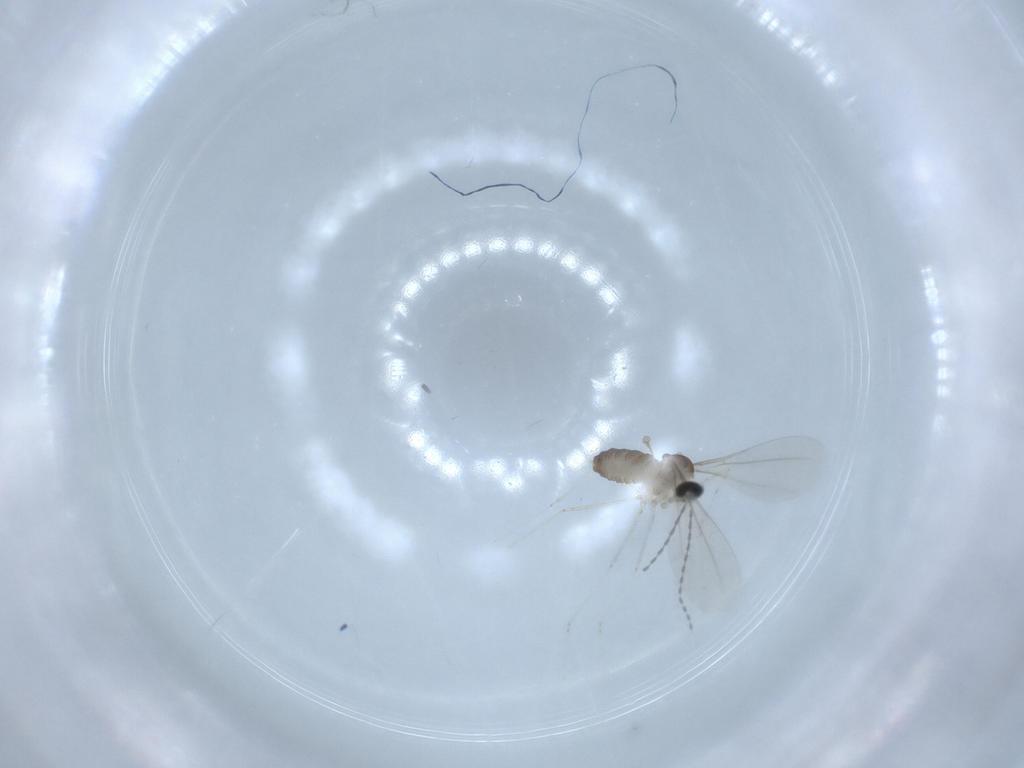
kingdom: Animalia
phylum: Arthropoda
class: Insecta
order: Diptera
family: Cecidomyiidae
